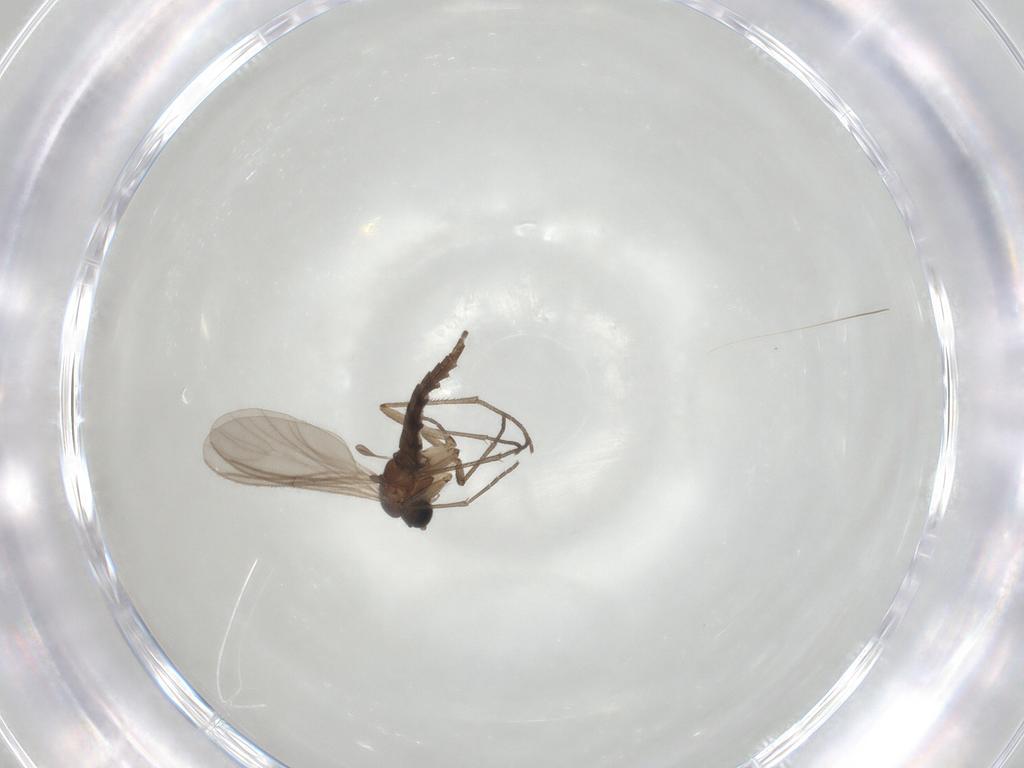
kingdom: Animalia
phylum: Arthropoda
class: Insecta
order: Diptera
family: Sciaridae
